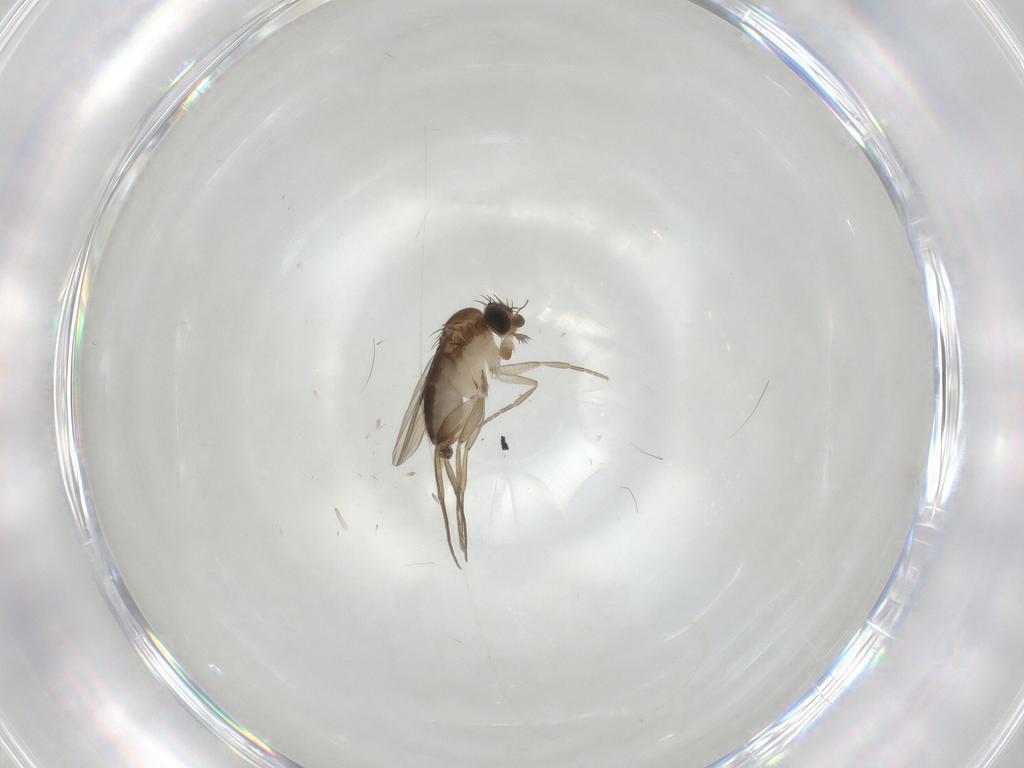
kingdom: Animalia
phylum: Arthropoda
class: Insecta
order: Diptera
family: Phoridae
